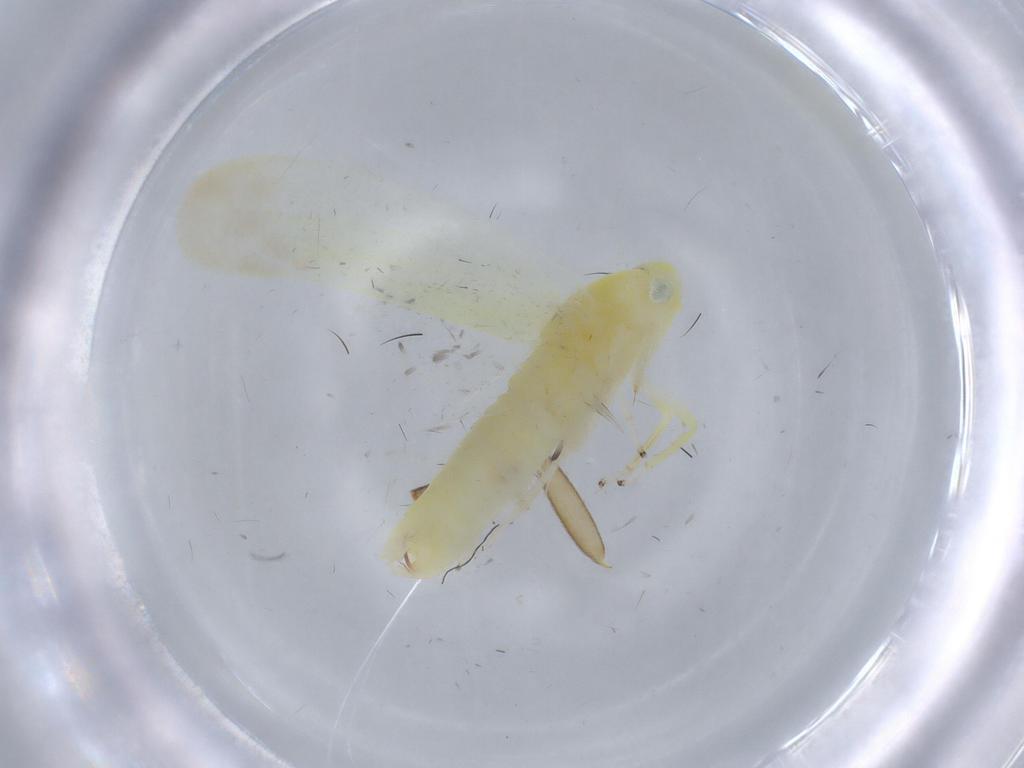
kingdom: Animalia
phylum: Arthropoda
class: Insecta
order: Hemiptera
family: Cicadellidae
